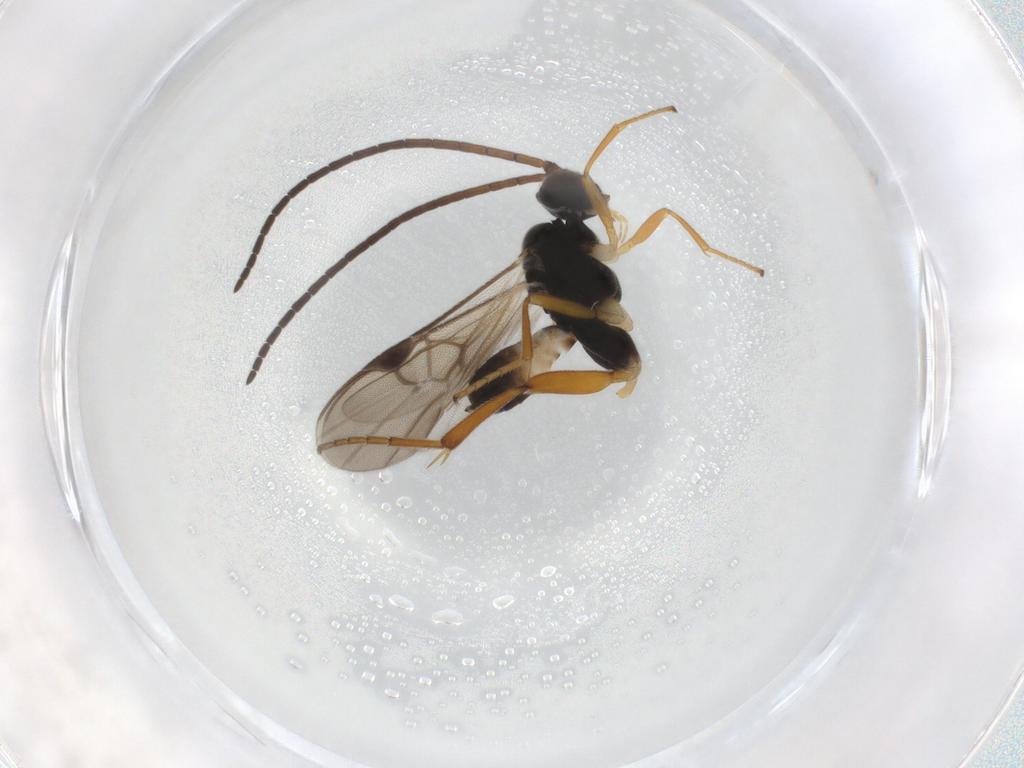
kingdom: Animalia
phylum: Arthropoda
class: Insecta
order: Hymenoptera
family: Braconidae
